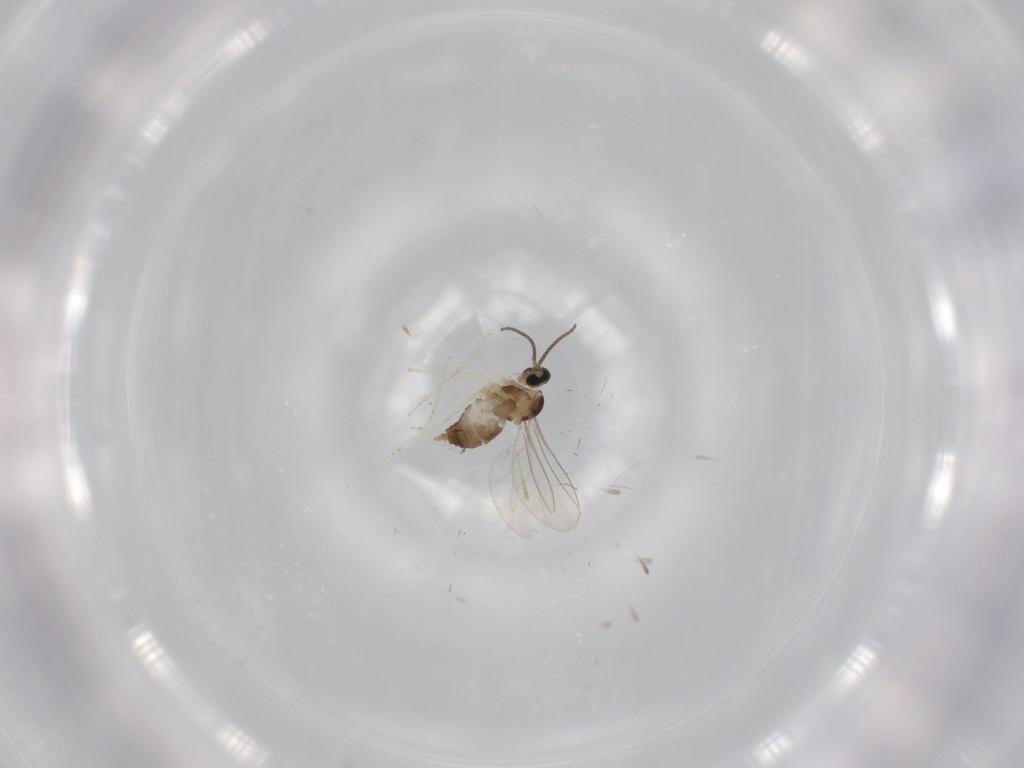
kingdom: Animalia
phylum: Arthropoda
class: Insecta
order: Diptera
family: Cecidomyiidae
